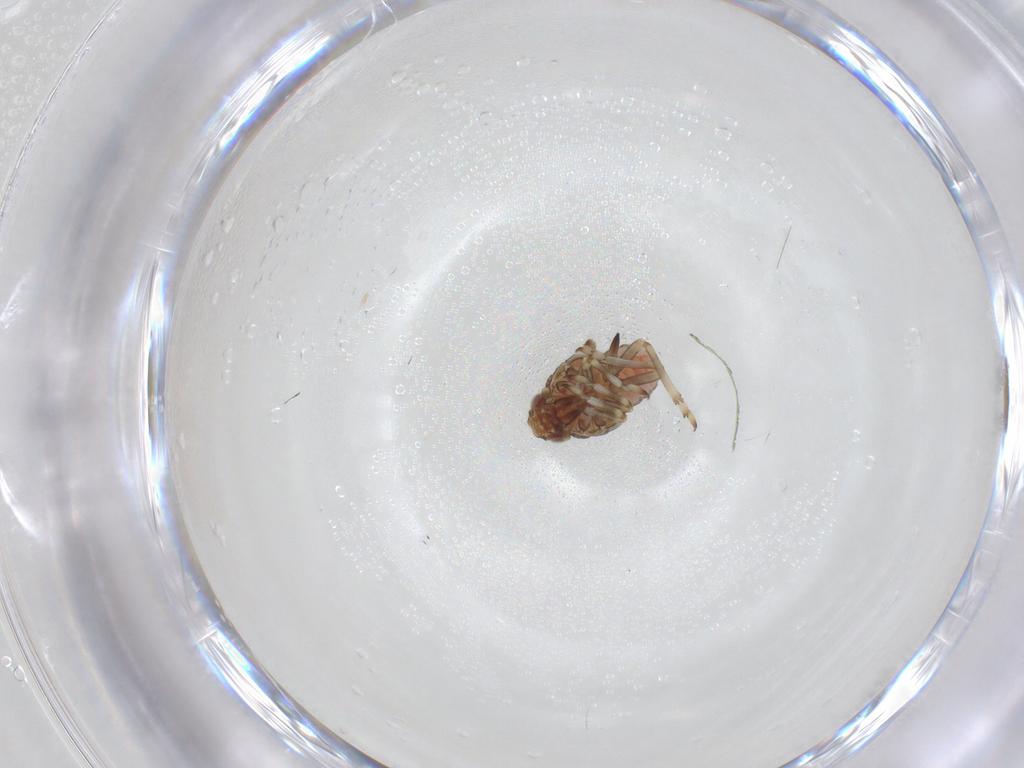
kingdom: Animalia
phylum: Arthropoda
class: Insecta
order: Hemiptera
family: Tropiduchidae
